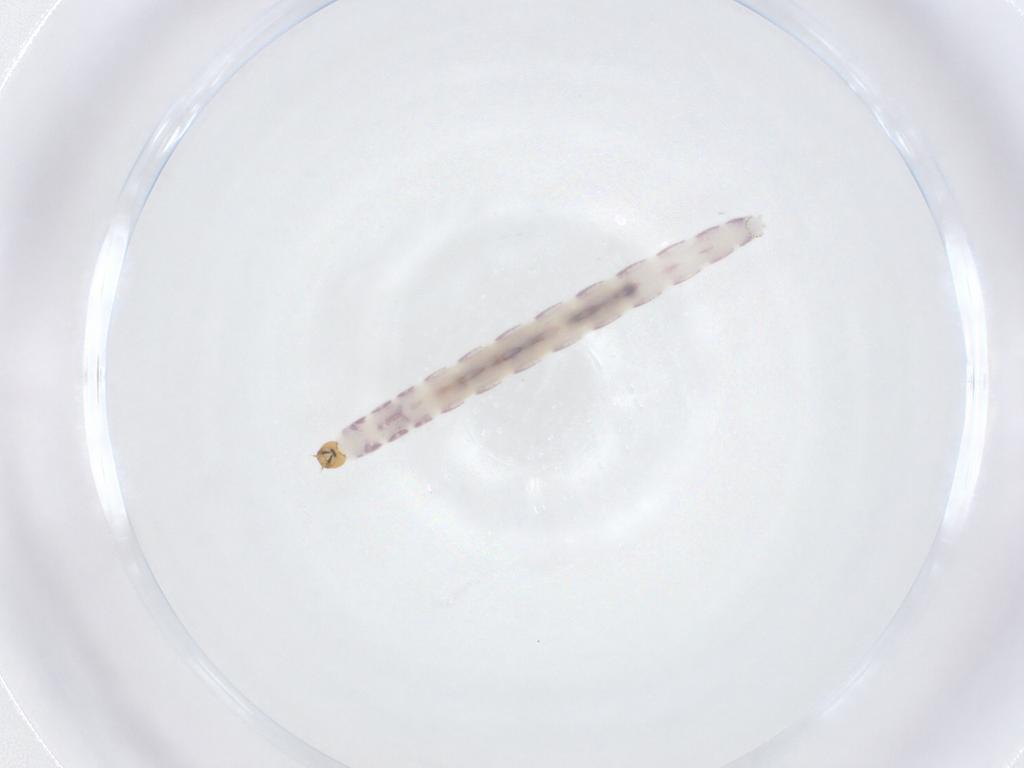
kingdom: Animalia
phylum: Arthropoda
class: Insecta
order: Diptera
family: Chironomidae
